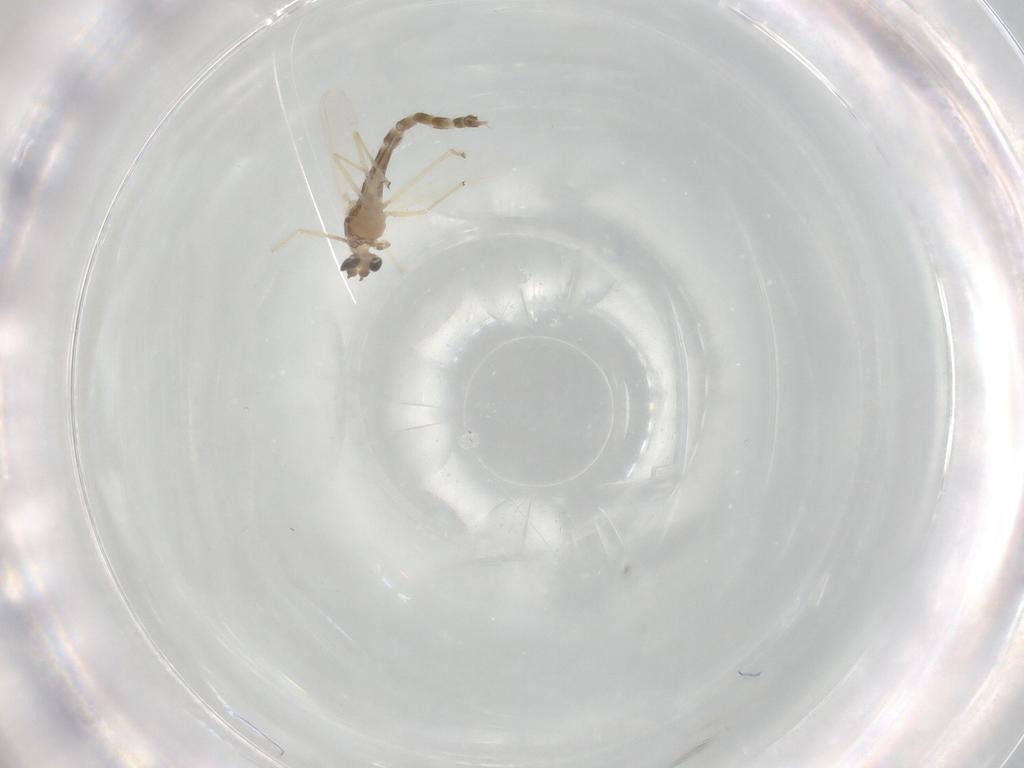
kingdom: Animalia
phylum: Arthropoda
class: Insecta
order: Diptera
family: Chironomidae
